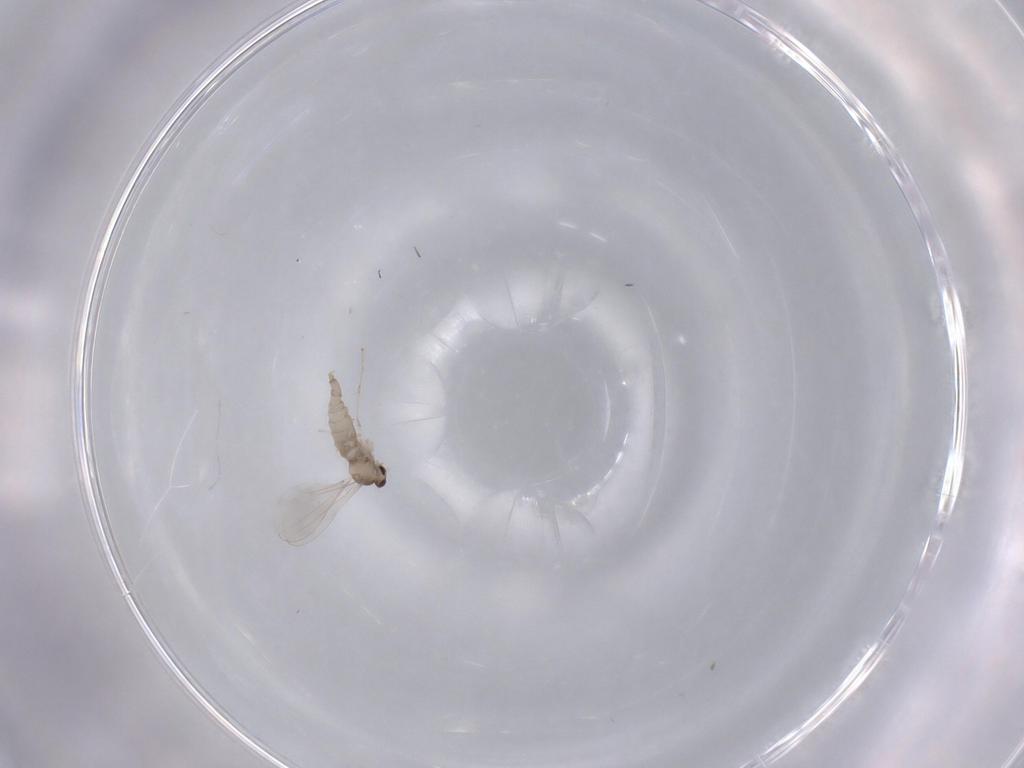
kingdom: Animalia
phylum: Arthropoda
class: Insecta
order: Diptera
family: Cecidomyiidae
